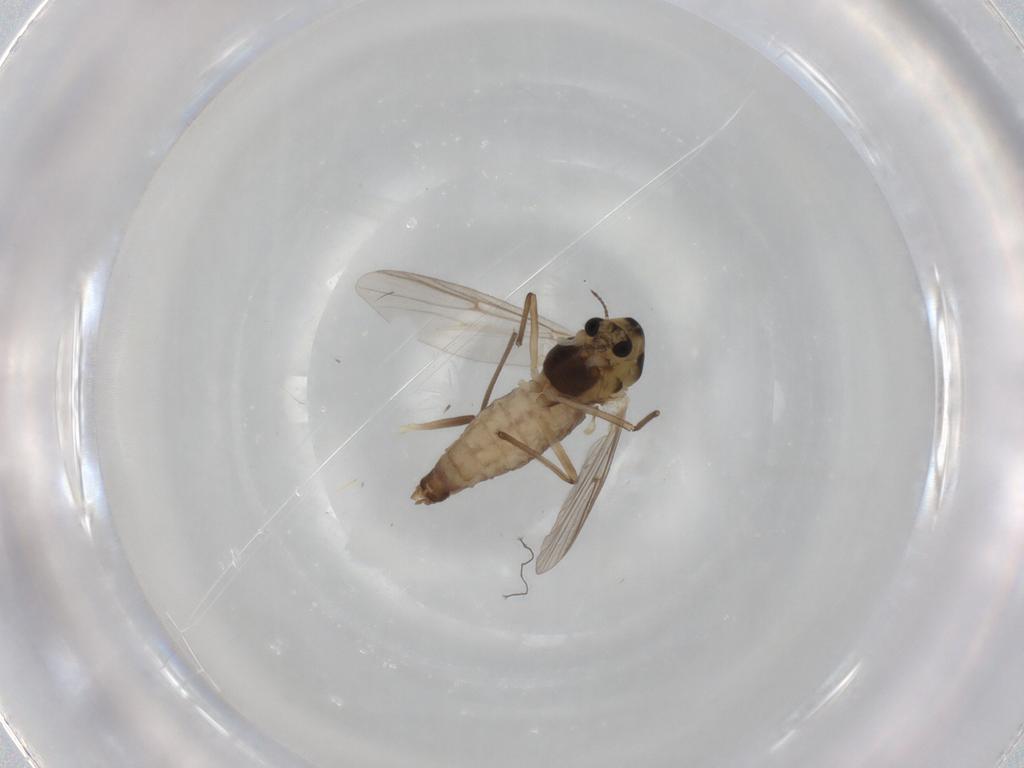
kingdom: Animalia
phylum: Arthropoda
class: Insecta
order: Diptera
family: Chironomidae
